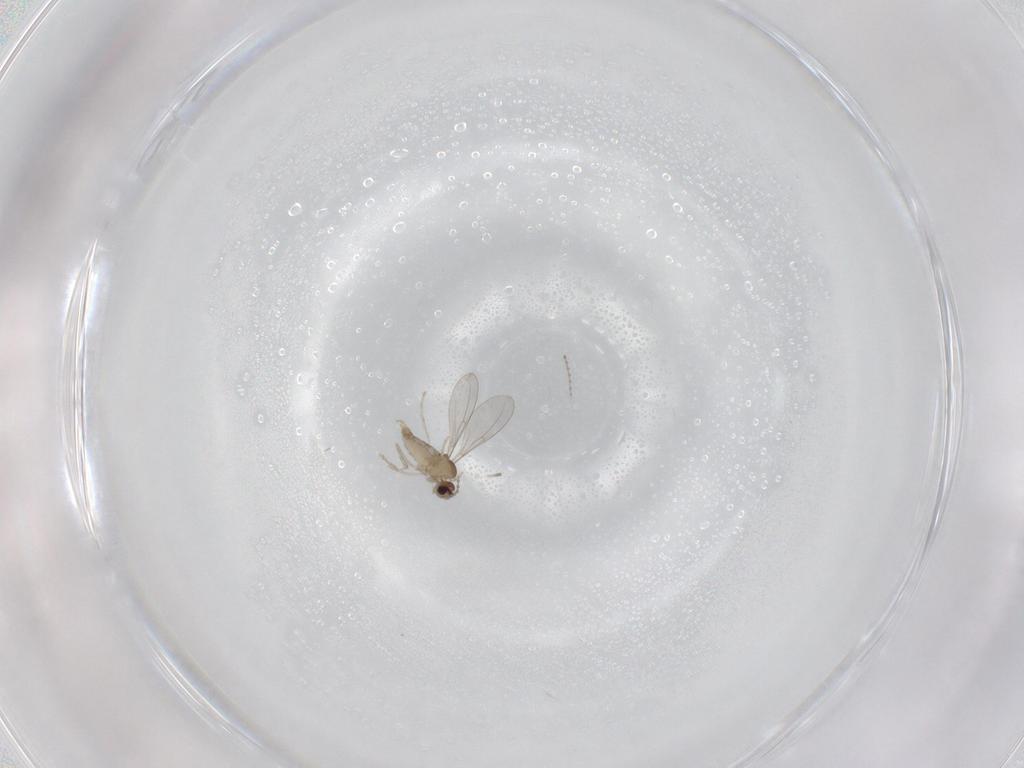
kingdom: Animalia
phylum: Arthropoda
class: Insecta
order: Diptera
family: Cecidomyiidae
